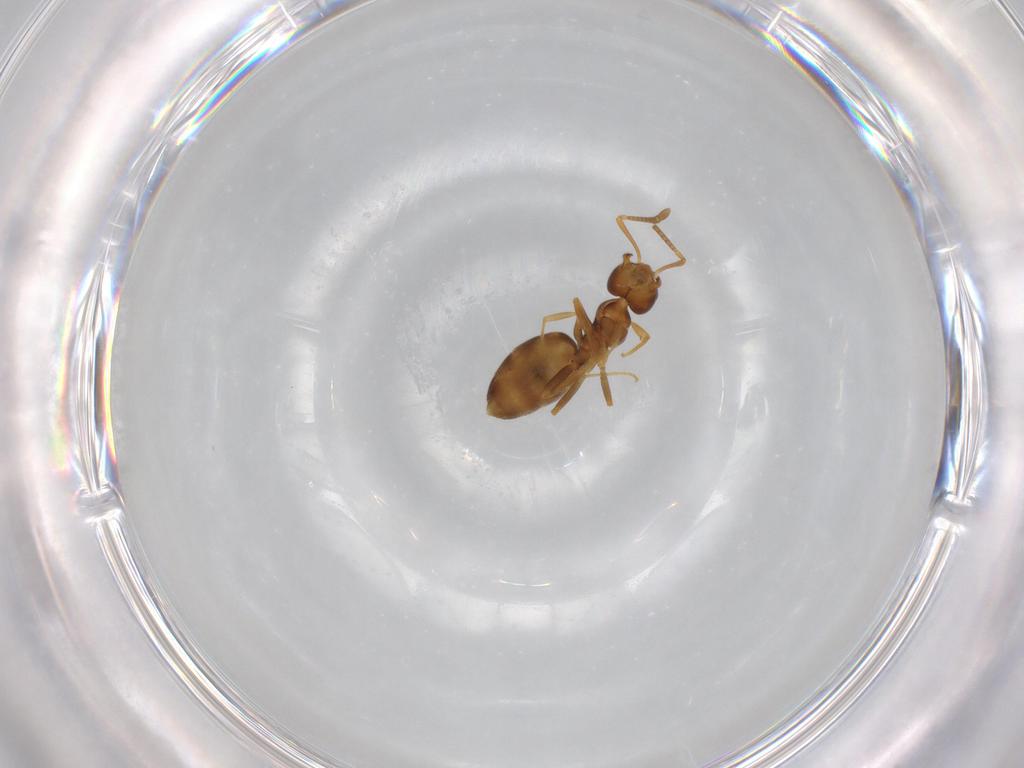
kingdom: Animalia
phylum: Arthropoda
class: Insecta
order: Hymenoptera
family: Formicidae
